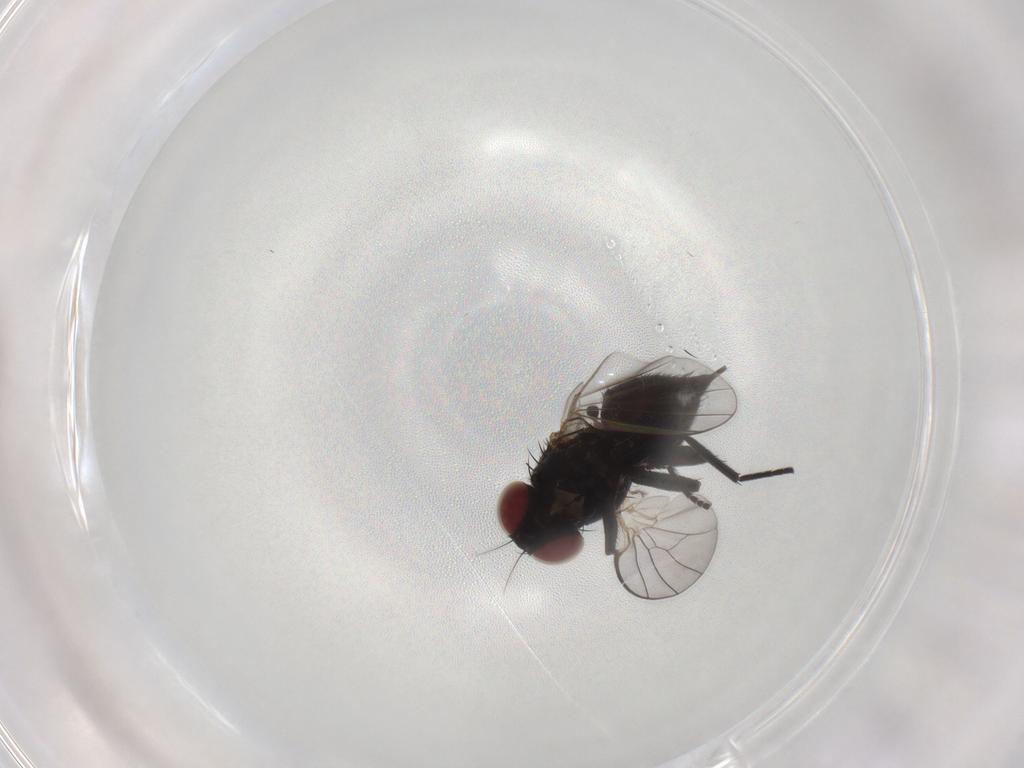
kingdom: Animalia
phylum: Arthropoda
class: Insecta
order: Diptera
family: Agromyzidae
